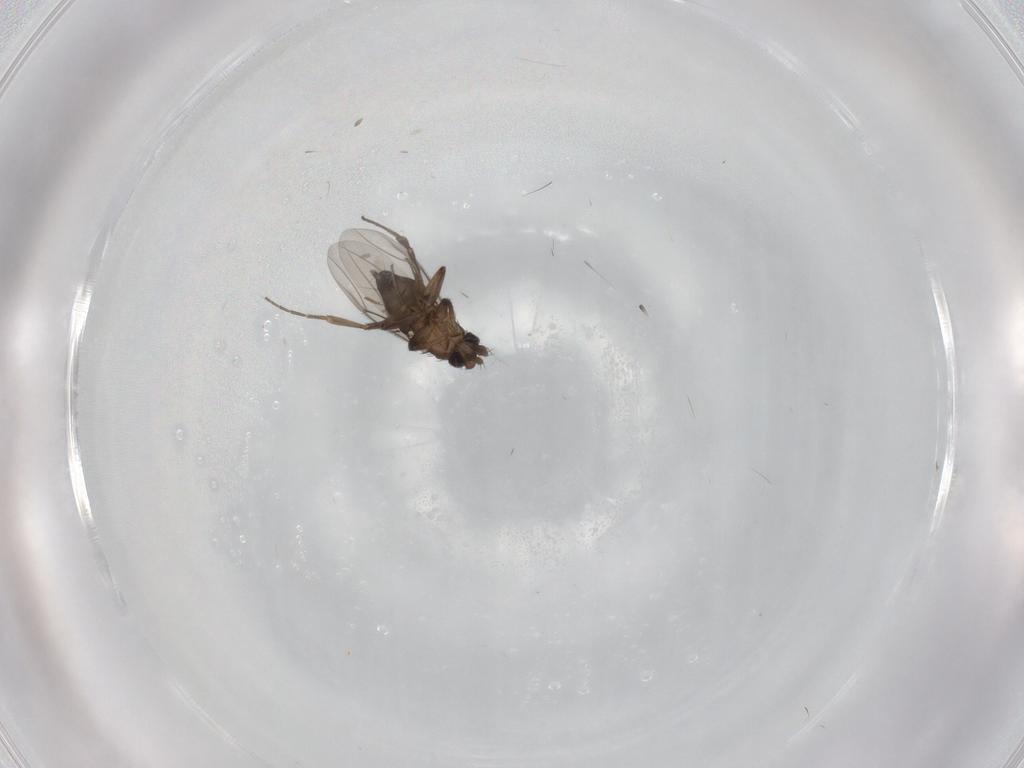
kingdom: Animalia
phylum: Arthropoda
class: Insecta
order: Diptera
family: Phoridae
